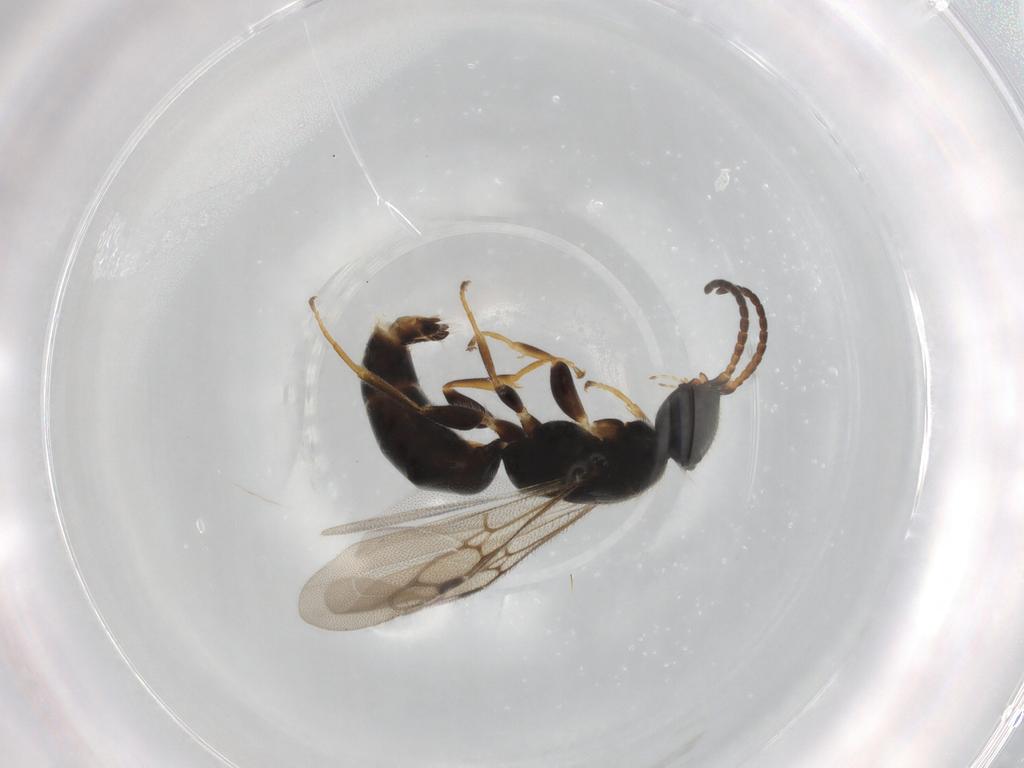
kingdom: Animalia
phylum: Arthropoda
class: Insecta
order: Hymenoptera
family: Bethylidae
